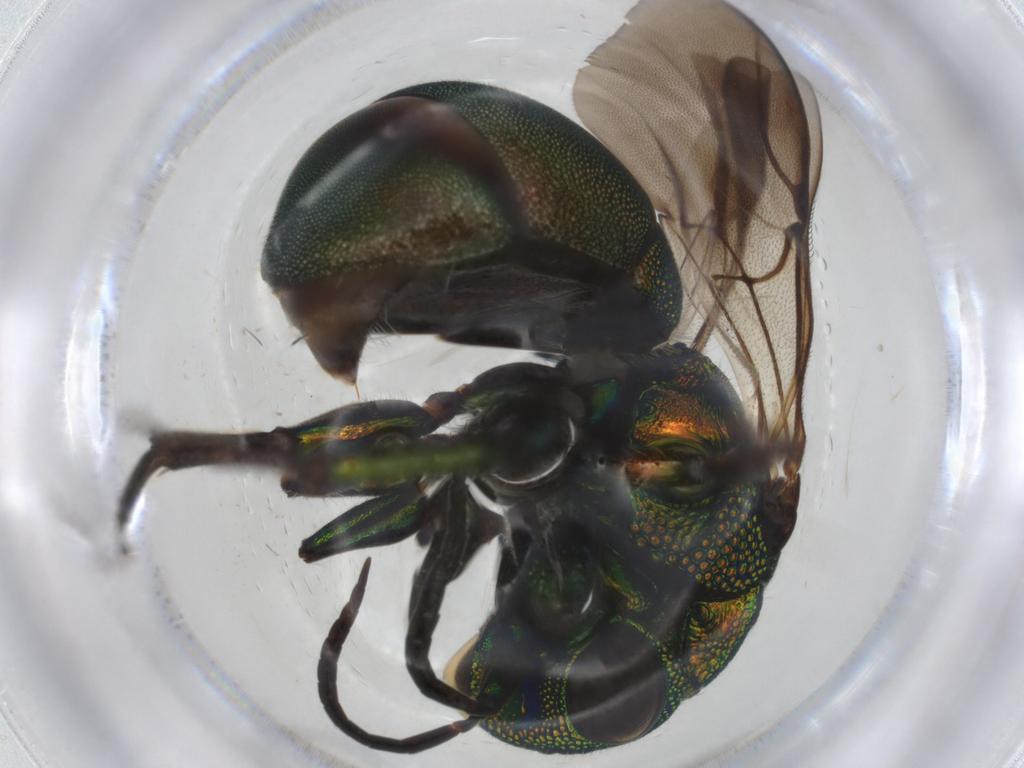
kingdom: Animalia
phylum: Arthropoda
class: Insecta
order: Hymenoptera
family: Chrysididae
